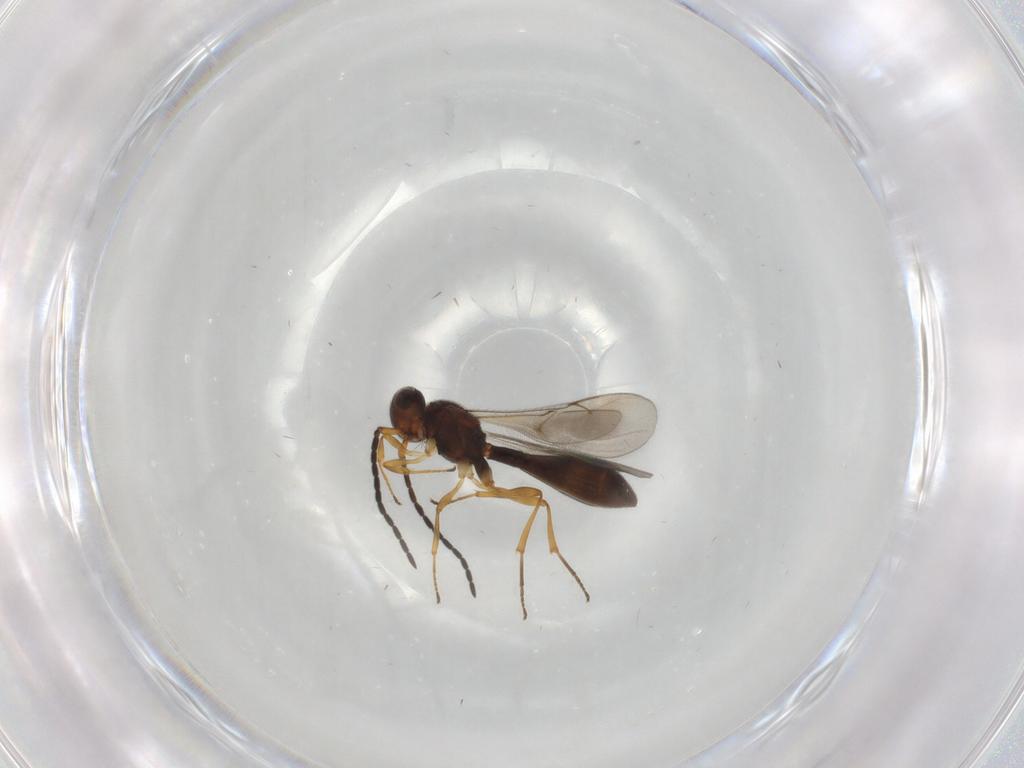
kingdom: Animalia
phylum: Arthropoda
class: Insecta
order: Hymenoptera
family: Scelionidae
